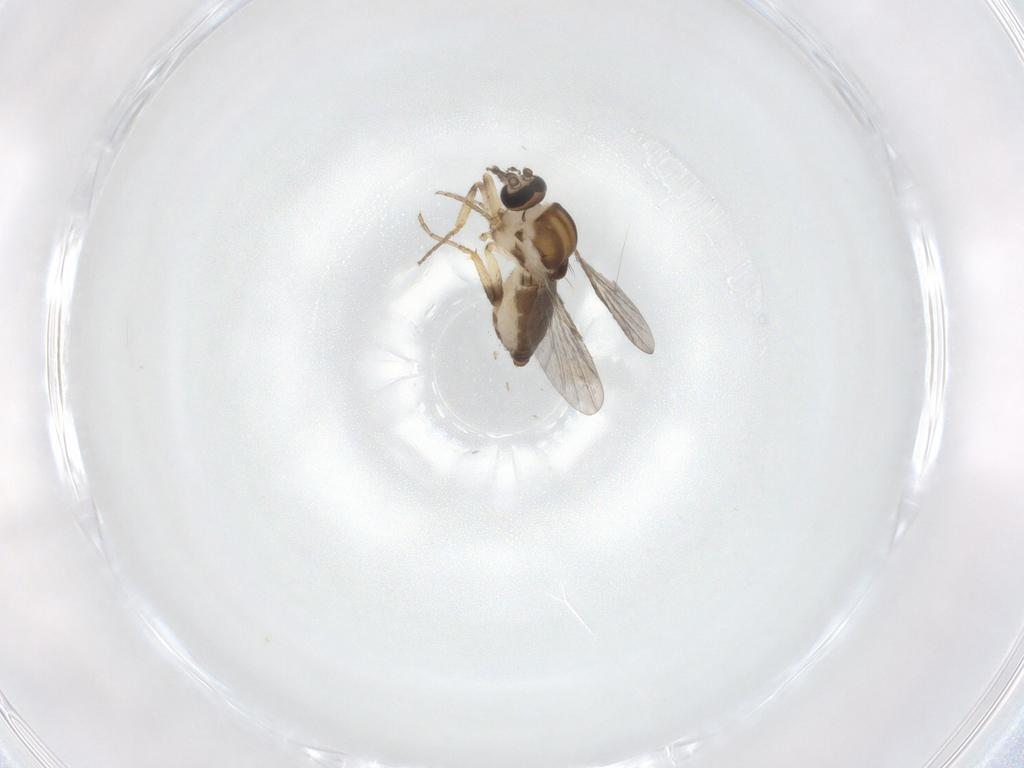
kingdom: Animalia
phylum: Arthropoda
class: Insecta
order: Diptera
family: Ceratopogonidae
